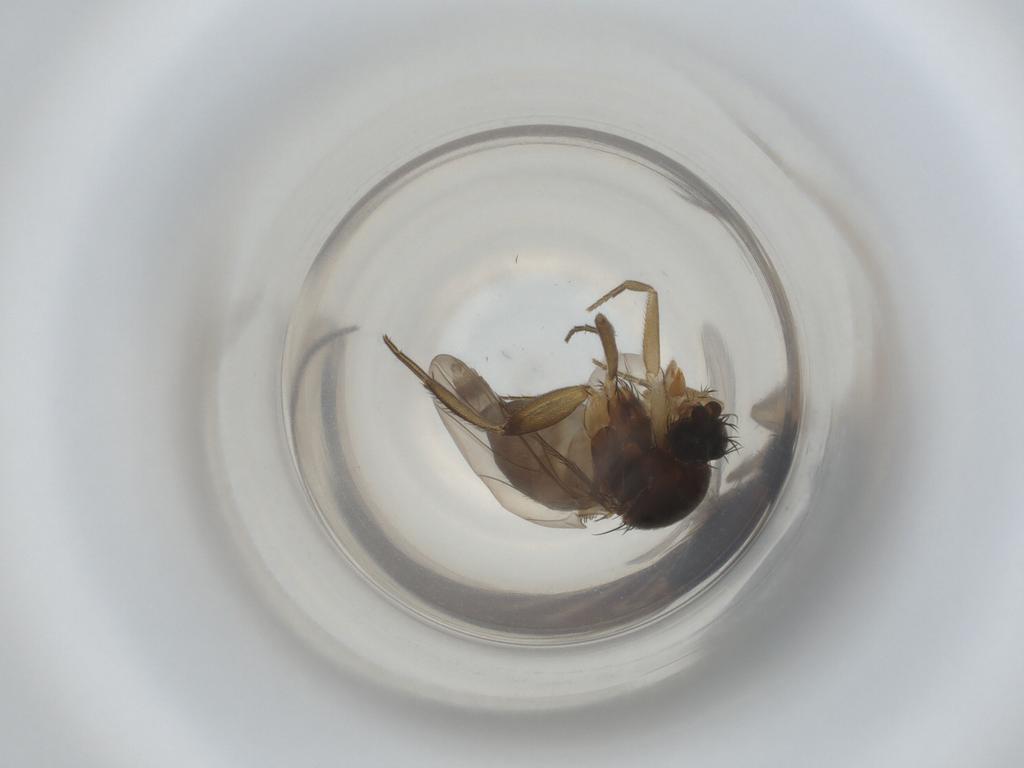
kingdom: Animalia
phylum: Arthropoda
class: Insecta
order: Diptera
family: Phoridae
